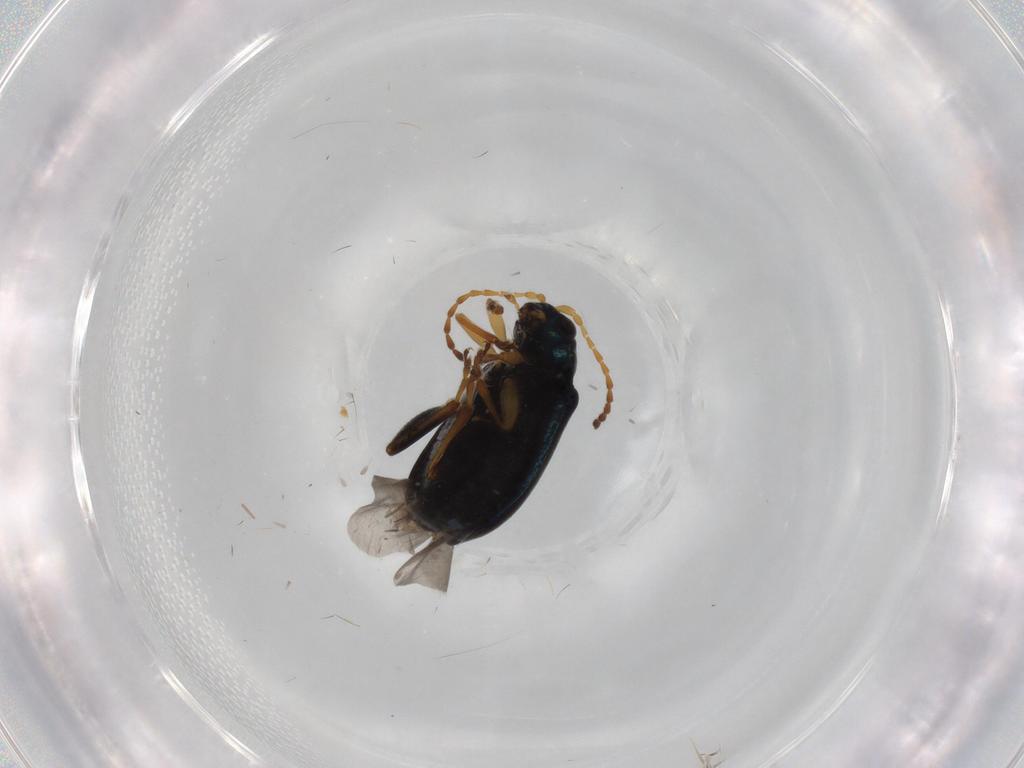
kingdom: Animalia
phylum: Arthropoda
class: Insecta
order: Coleoptera
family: Chrysomelidae
